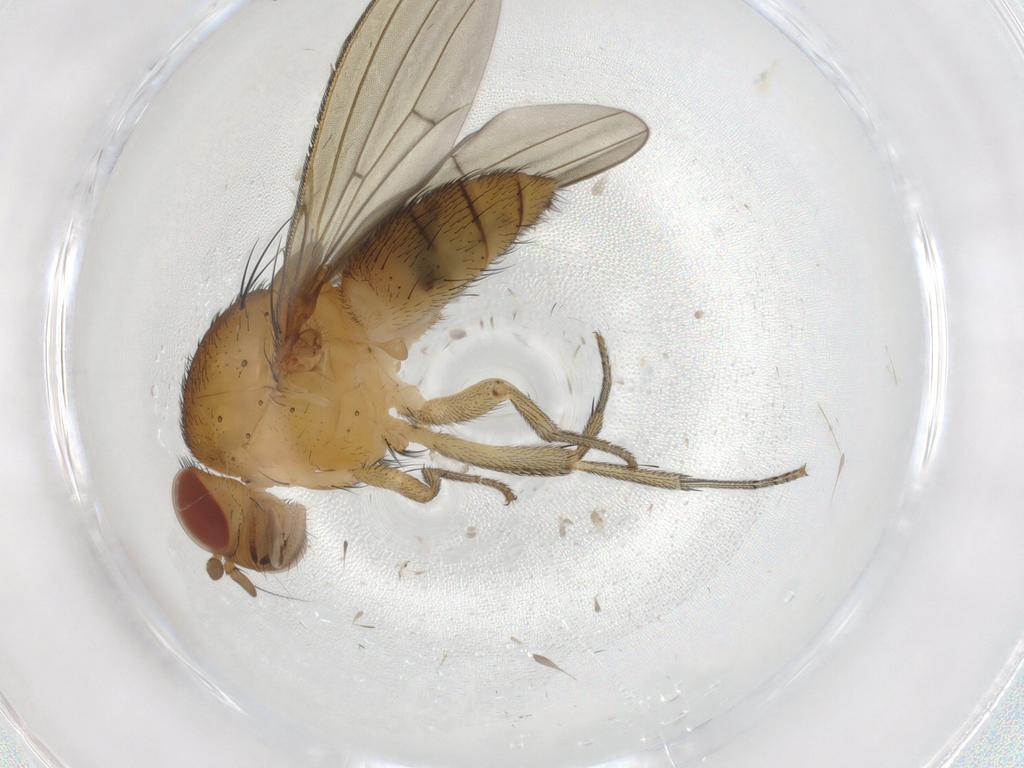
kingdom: Animalia
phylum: Arthropoda
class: Insecta
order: Diptera
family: Sciaridae
